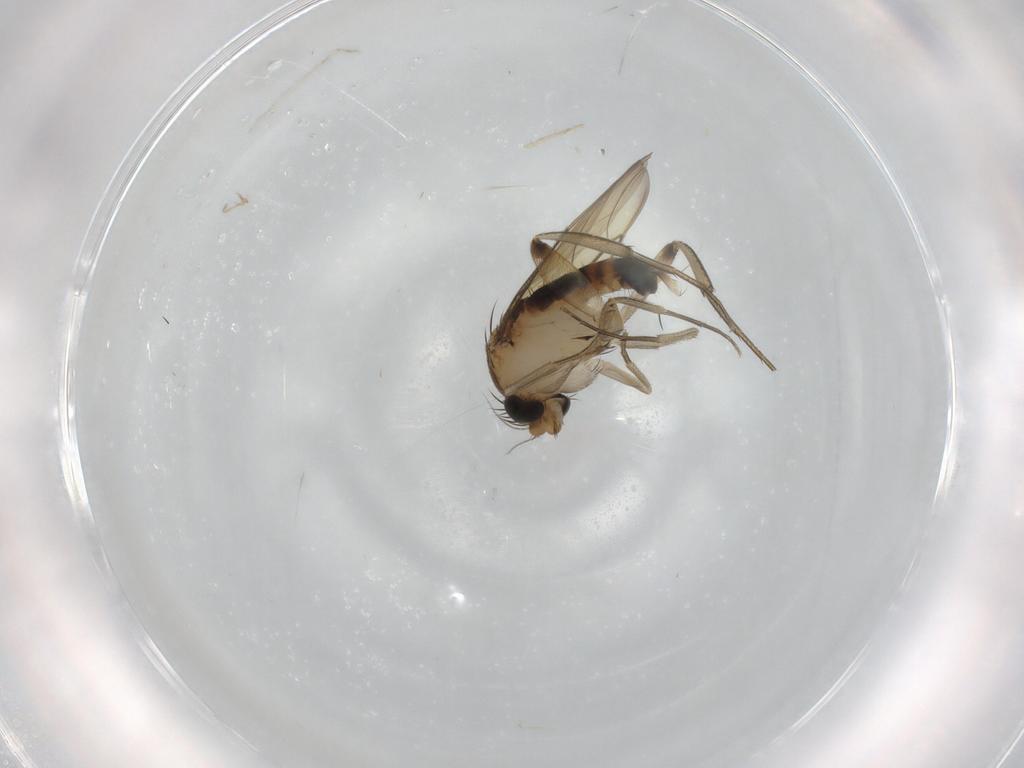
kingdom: Animalia
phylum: Arthropoda
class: Insecta
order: Diptera
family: Phoridae
